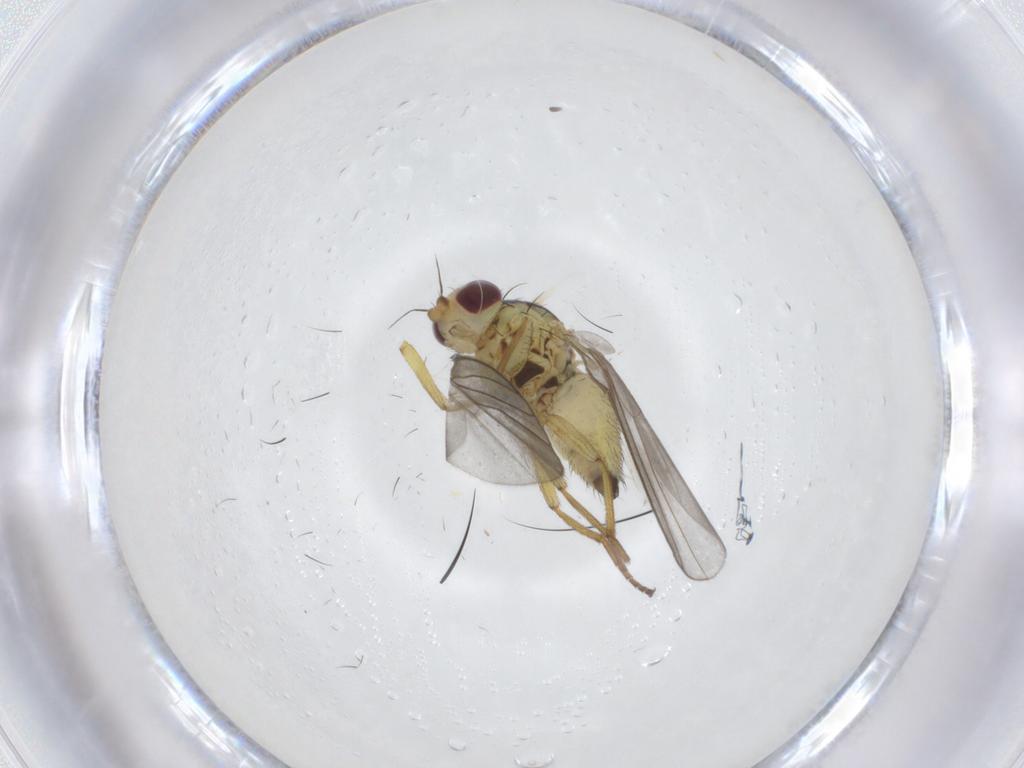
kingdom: Animalia
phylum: Arthropoda
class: Insecta
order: Diptera
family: Agromyzidae
